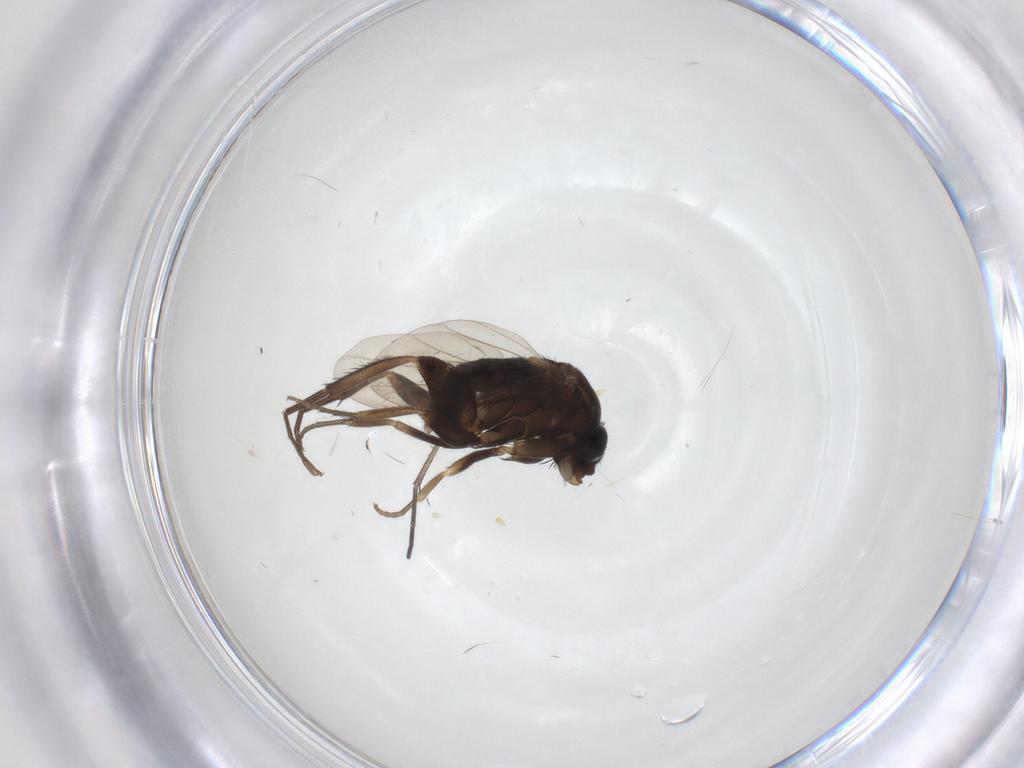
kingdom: Animalia
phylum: Arthropoda
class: Insecta
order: Diptera
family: Phoridae
